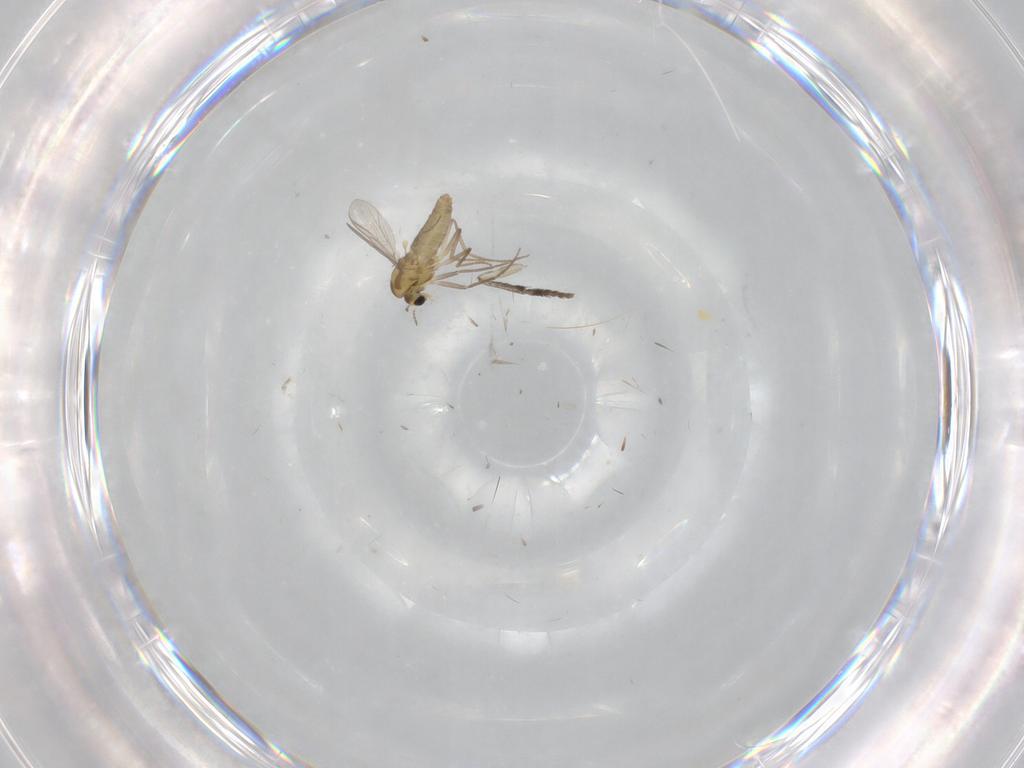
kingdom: Animalia
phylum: Arthropoda
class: Insecta
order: Diptera
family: Chironomidae
